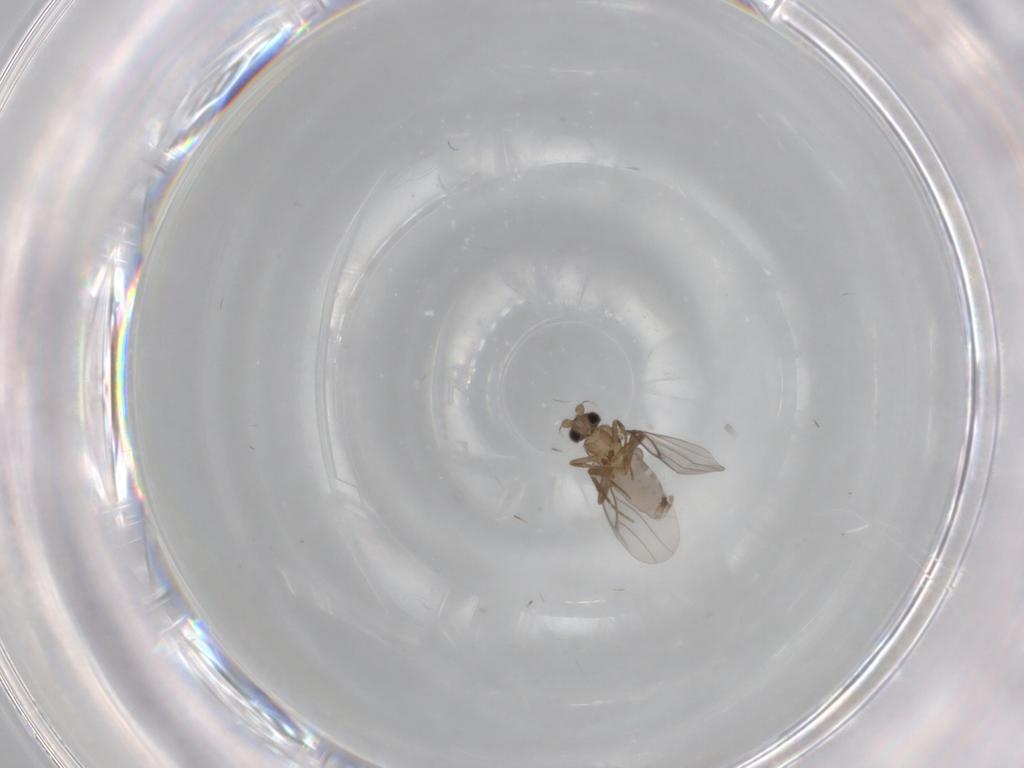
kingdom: Animalia
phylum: Arthropoda
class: Insecta
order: Diptera
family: Cecidomyiidae
